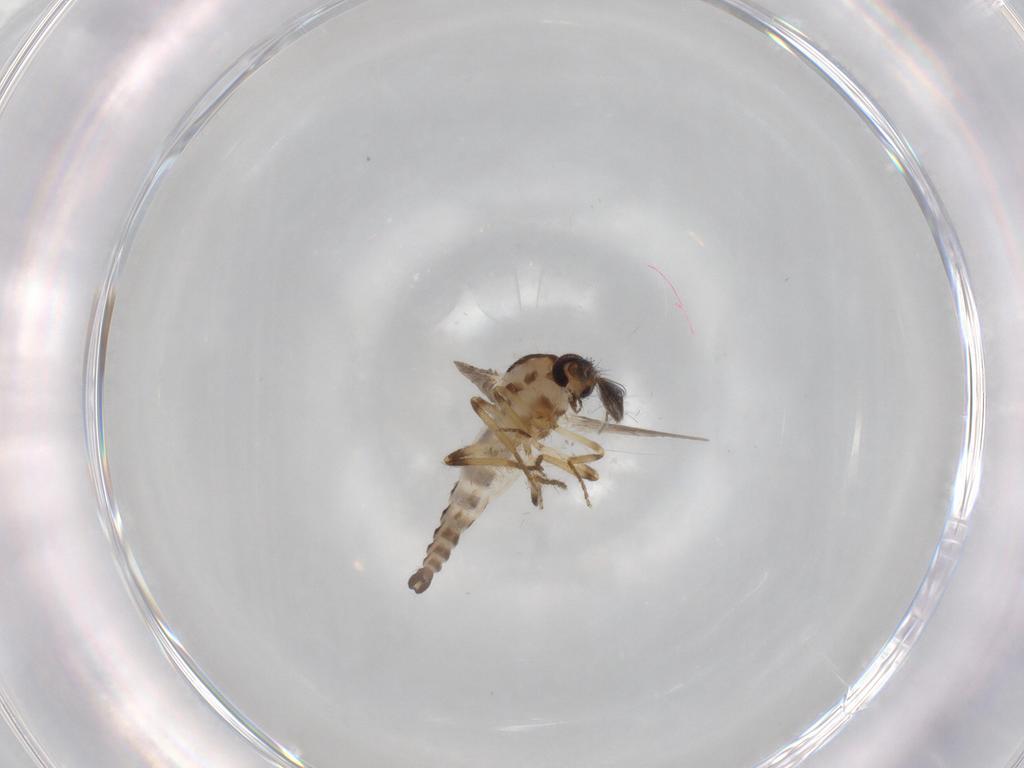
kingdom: Animalia
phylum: Arthropoda
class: Insecta
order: Diptera
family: Ceratopogonidae
